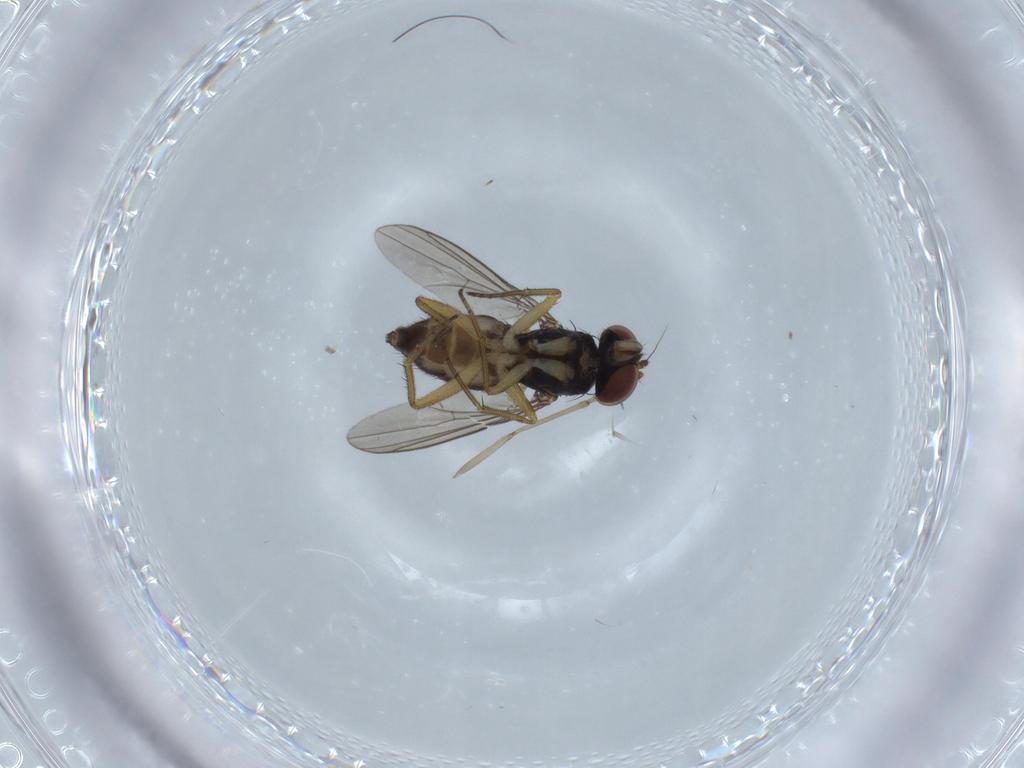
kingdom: Animalia
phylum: Arthropoda
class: Insecta
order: Diptera
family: Dolichopodidae
